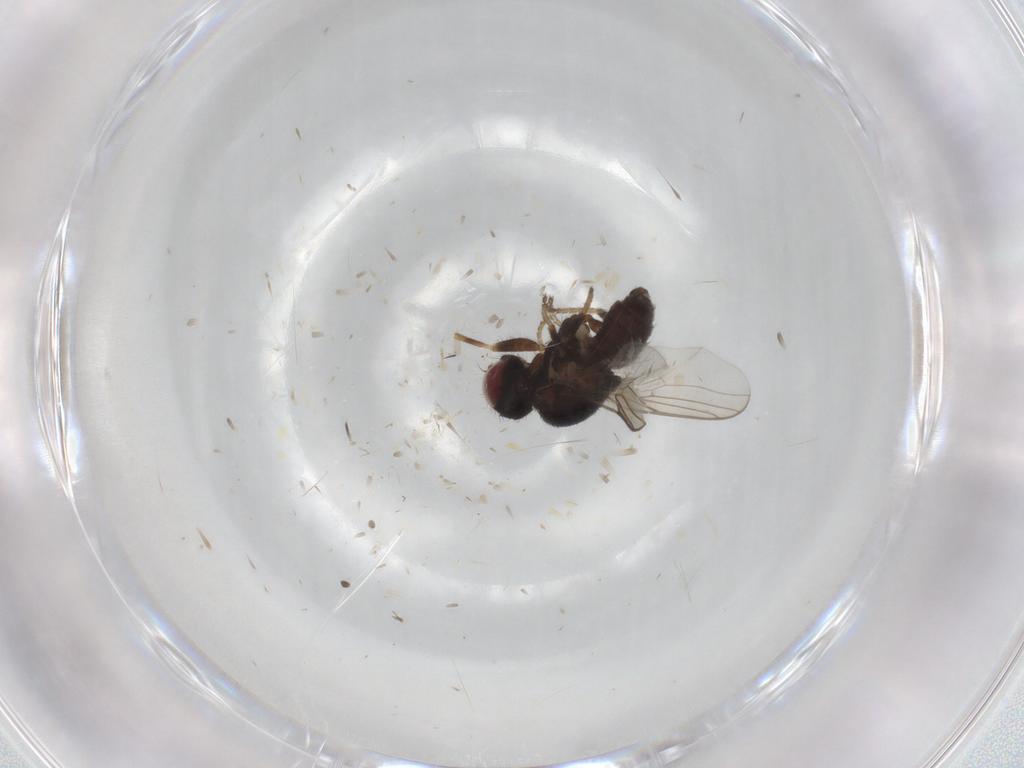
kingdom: Animalia
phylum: Arthropoda
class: Insecta
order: Diptera
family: Chloropidae
